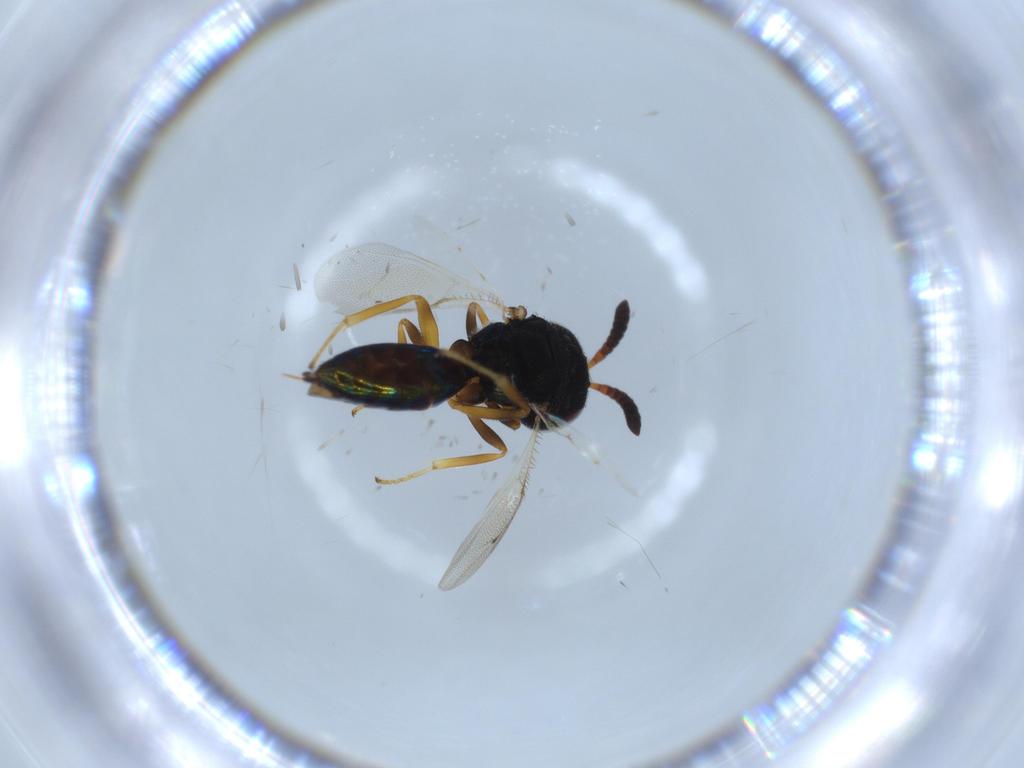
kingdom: Animalia
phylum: Arthropoda
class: Insecta
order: Hymenoptera
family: Agaonidae
